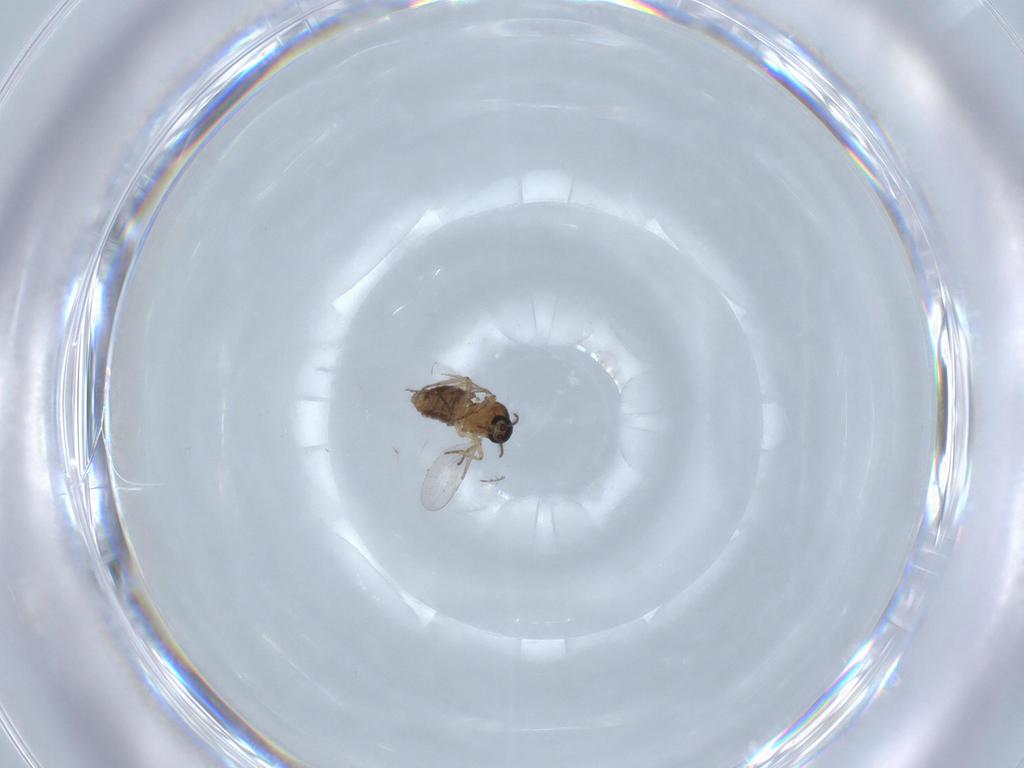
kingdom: Animalia
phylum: Arthropoda
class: Insecta
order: Diptera
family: Ceratopogonidae
